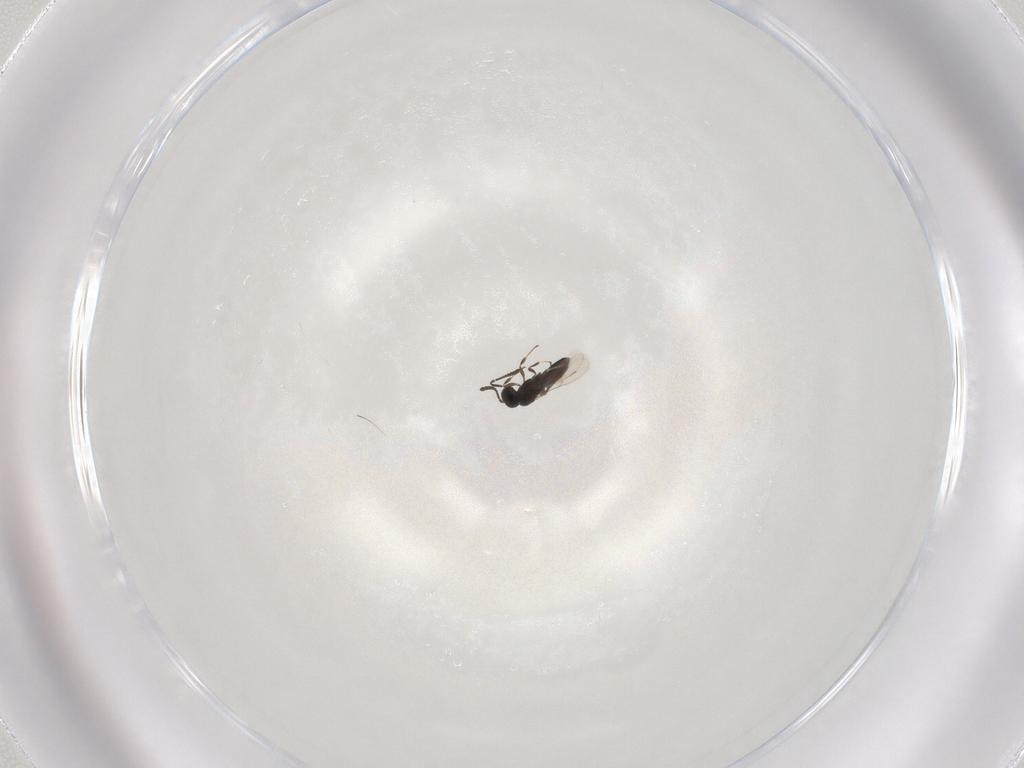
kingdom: Animalia
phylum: Arthropoda
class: Insecta
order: Hymenoptera
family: Scelionidae
